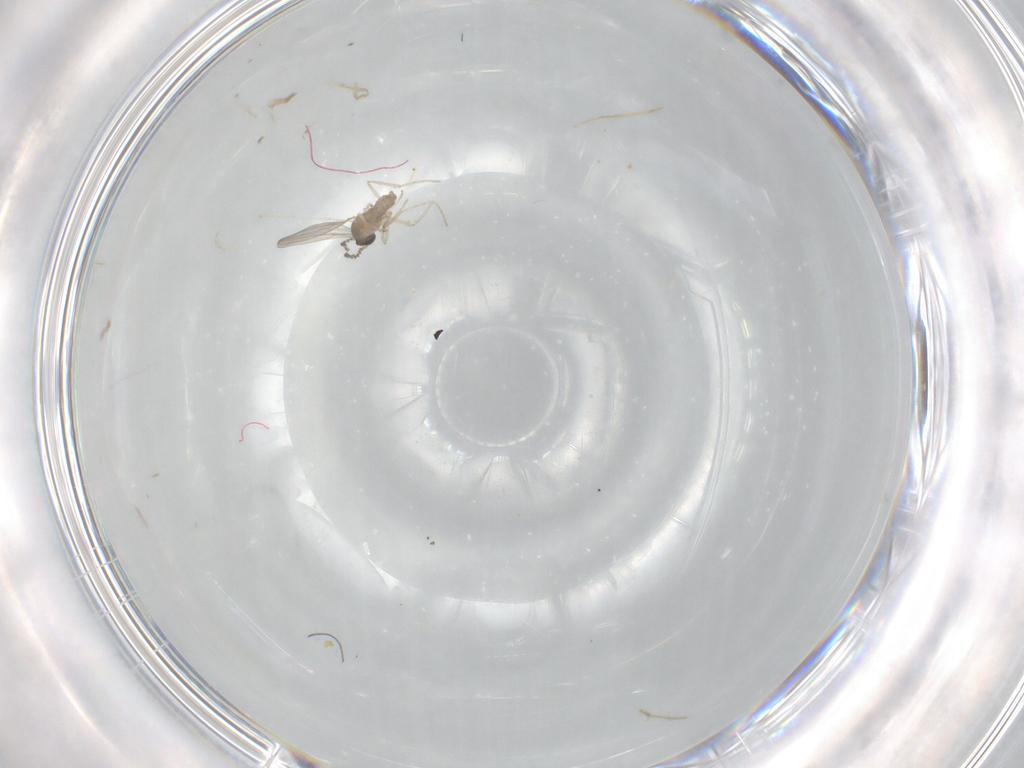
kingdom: Animalia
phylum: Arthropoda
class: Insecta
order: Diptera
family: Cecidomyiidae
